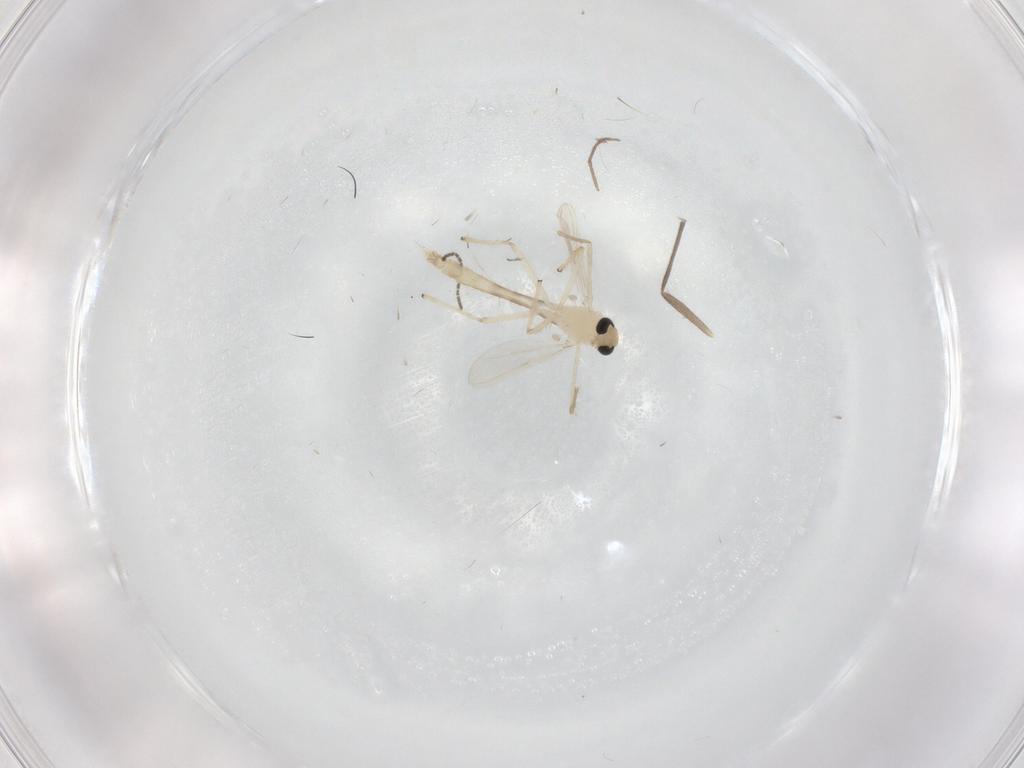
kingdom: Animalia
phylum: Arthropoda
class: Insecta
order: Diptera
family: Chironomidae
